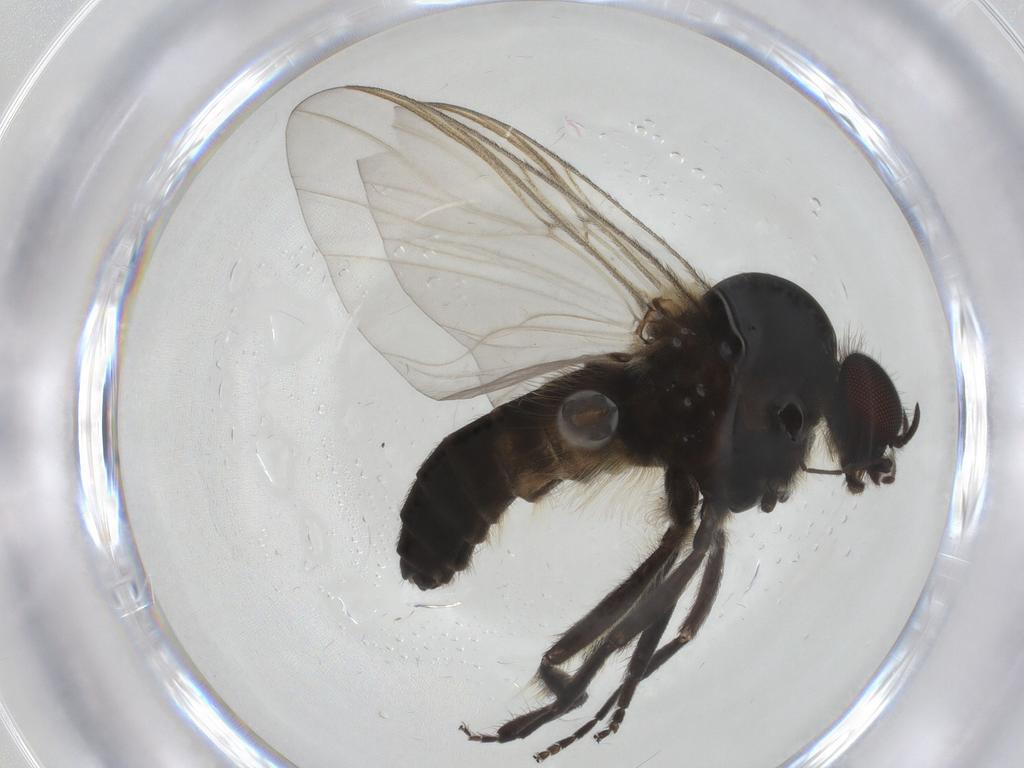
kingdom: Animalia
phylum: Arthropoda
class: Insecta
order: Diptera
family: Simuliidae
